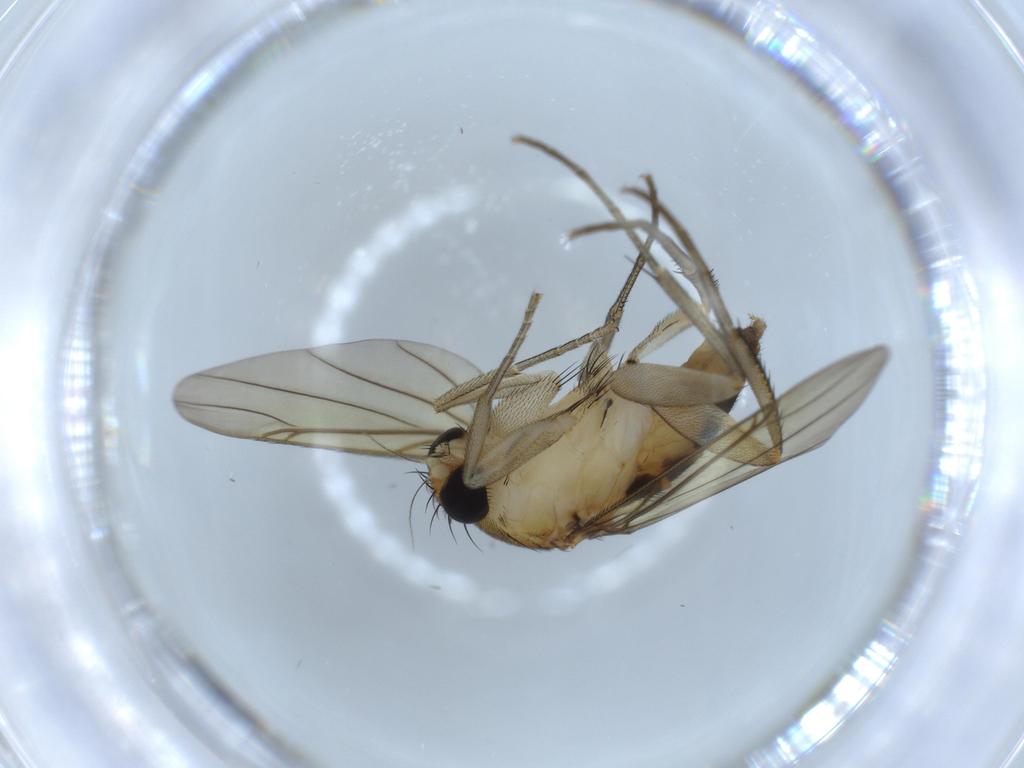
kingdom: Animalia
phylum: Arthropoda
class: Insecta
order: Diptera
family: Sciaridae
